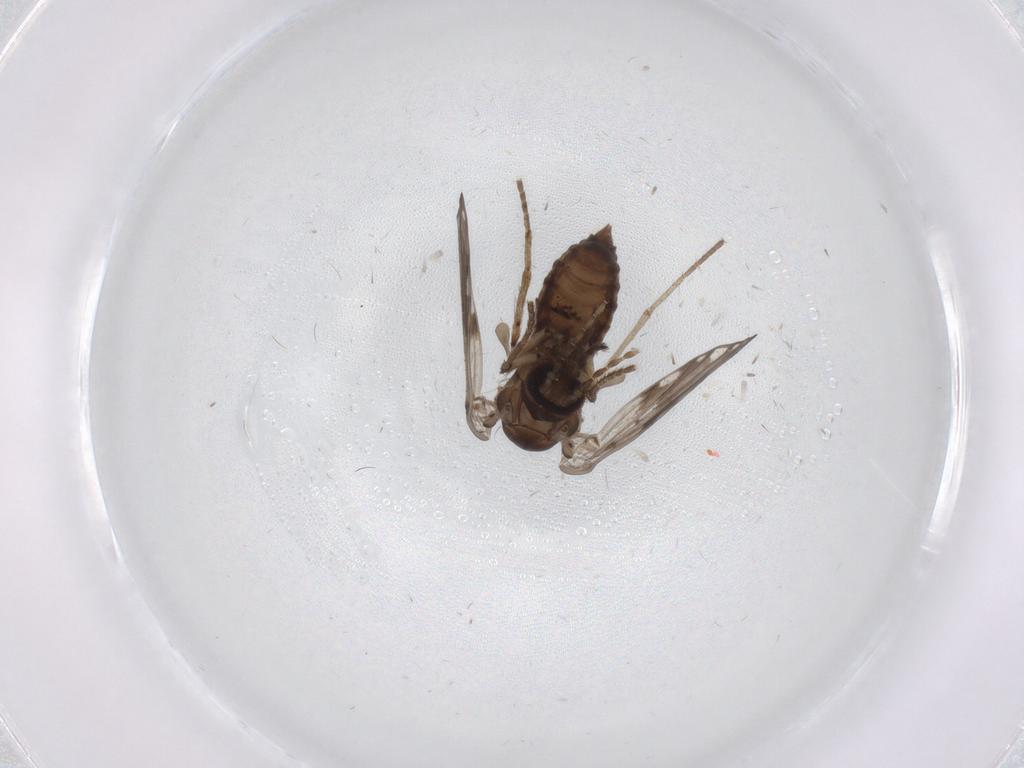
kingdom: Animalia
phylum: Arthropoda
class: Insecta
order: Diptera
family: Psychodidae
